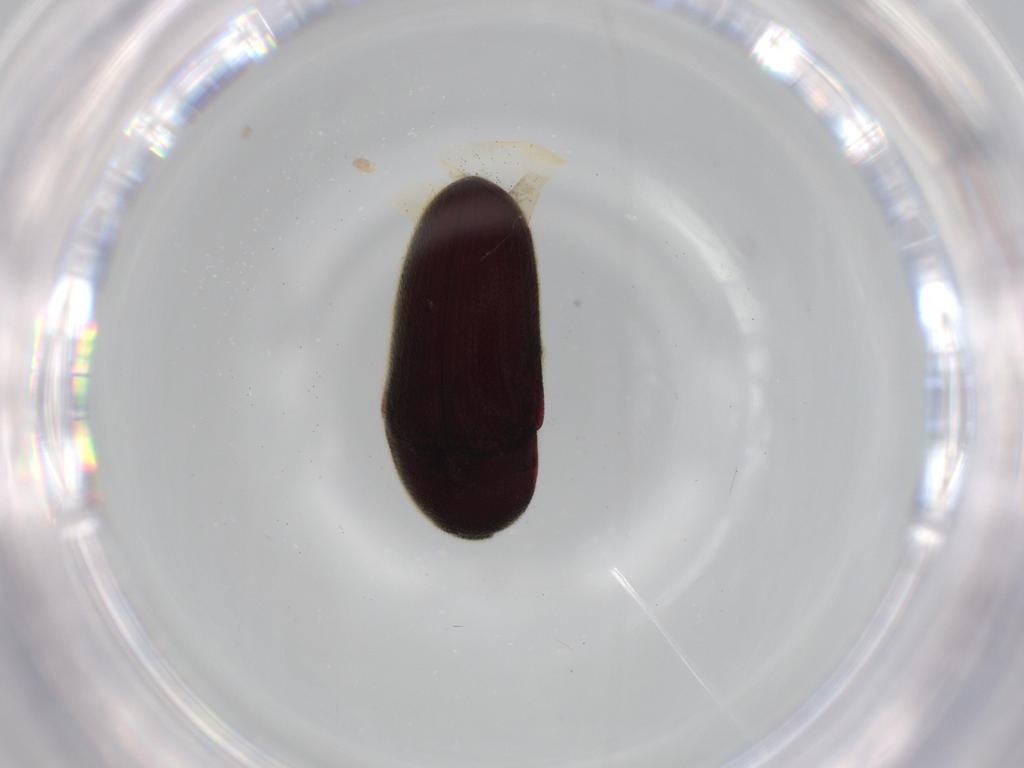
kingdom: Animalia
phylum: Arthropoda
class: Insecta
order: Coleoptera
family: Throscidae
